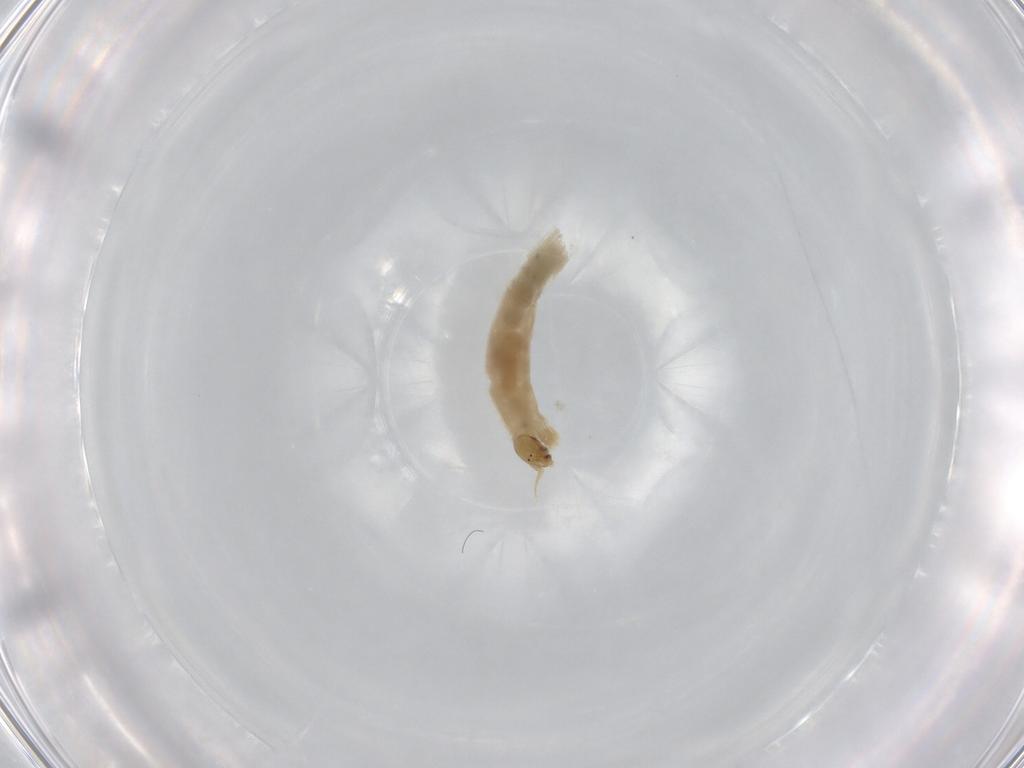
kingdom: Animalia
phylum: Arthropoda
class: Insecta
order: Diptera
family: Chironomidae
